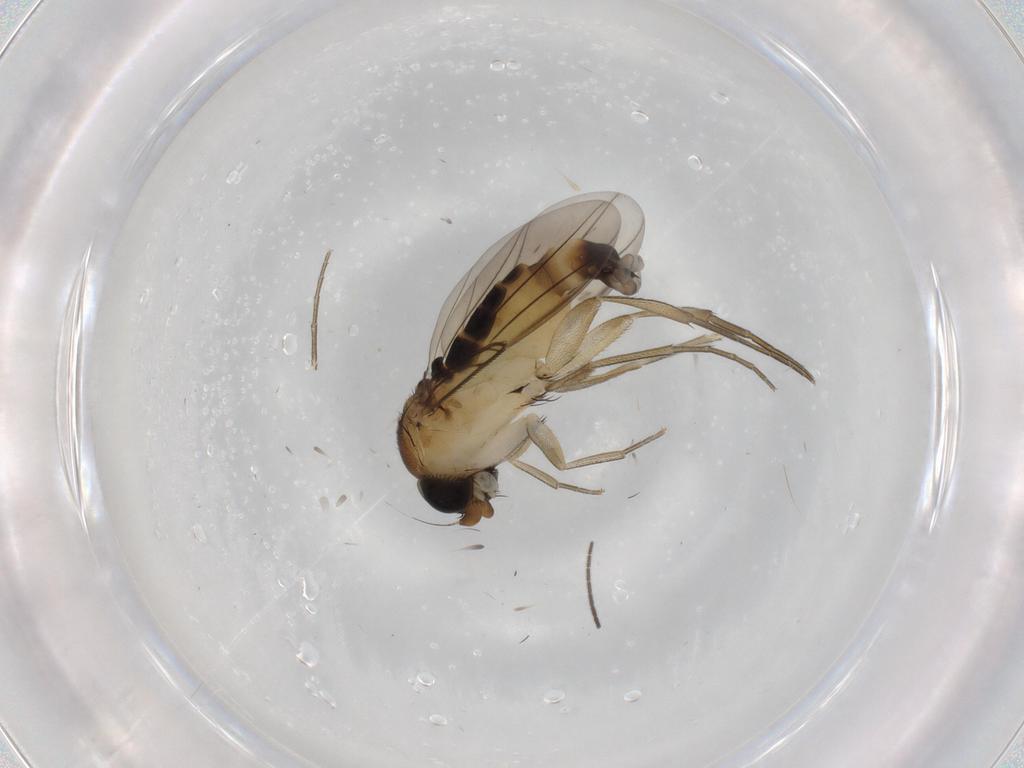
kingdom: Animalia
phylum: Arthropoda
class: Insecta
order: Diptera
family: Phoridae
